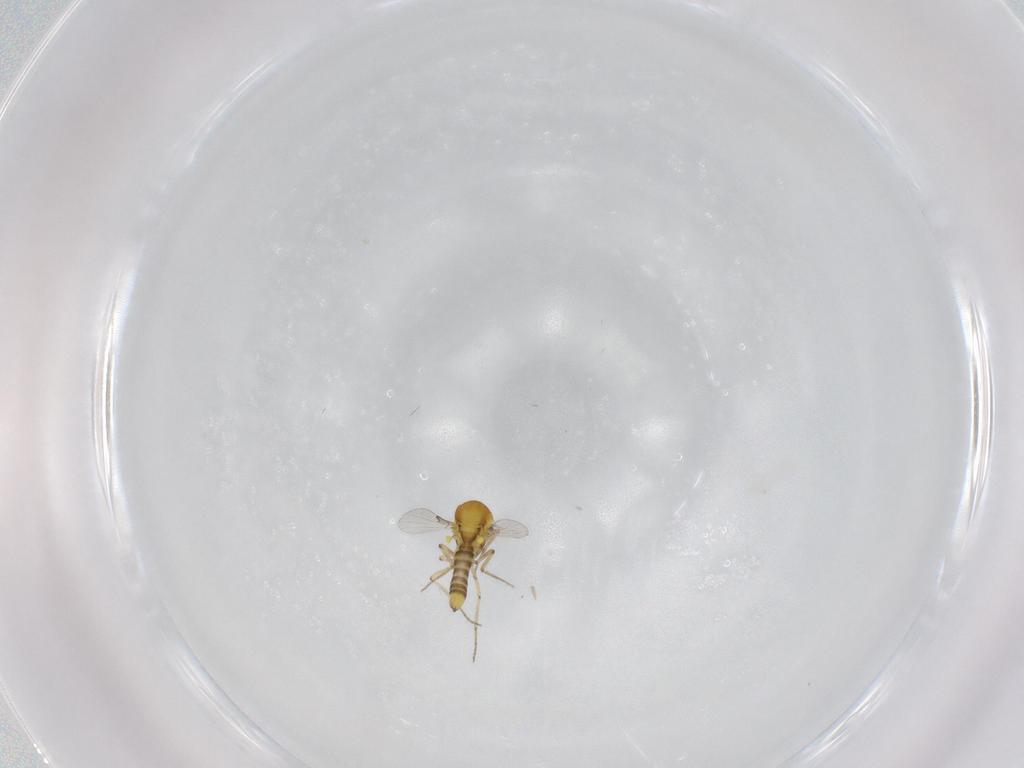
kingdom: Animalia
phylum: Arthropoda
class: Insecta
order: Diptera
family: Ceratopogonidae
